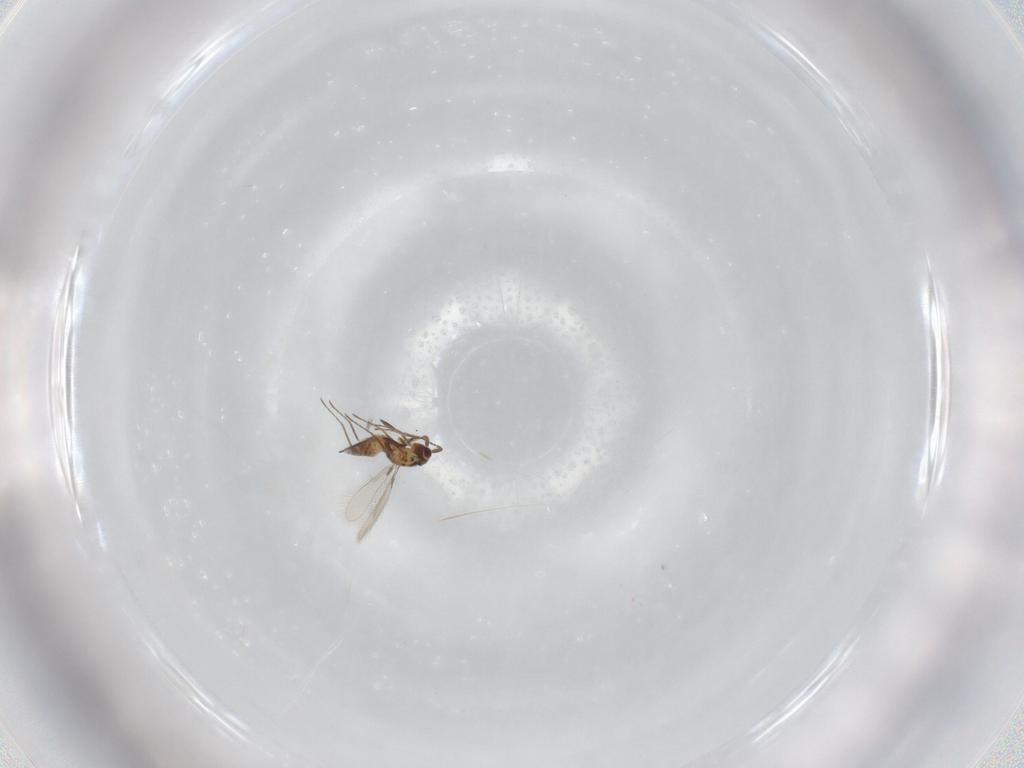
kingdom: Animalia
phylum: Arthropoda
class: Insecta
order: Hymenoptera
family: Mymaridae
